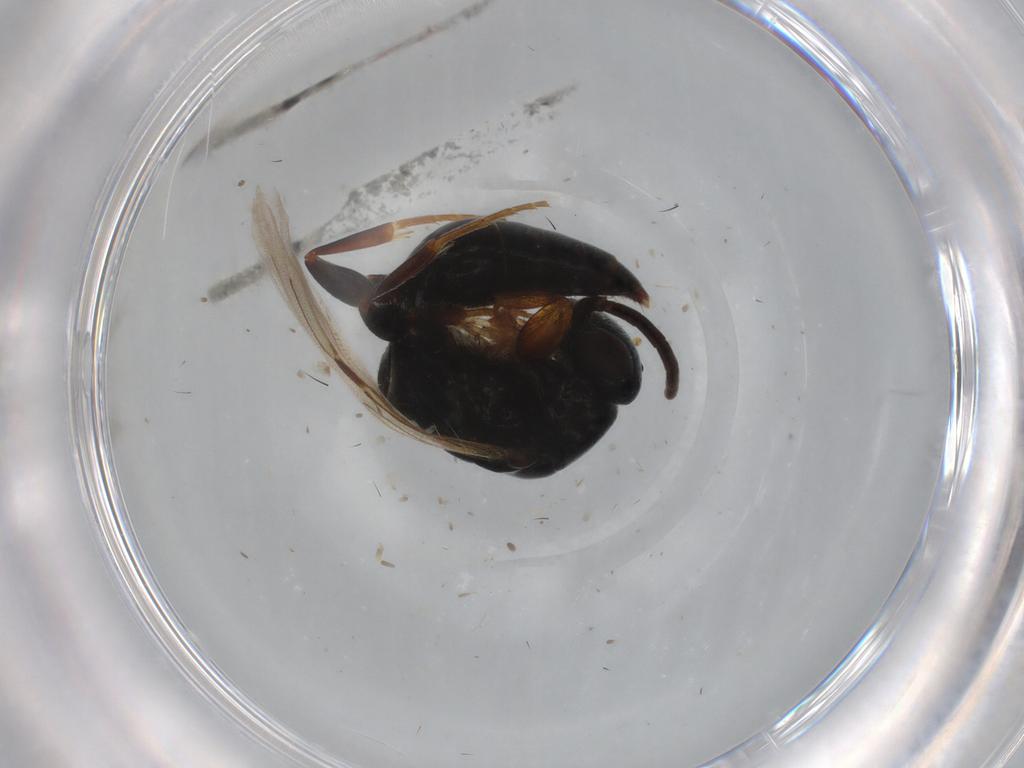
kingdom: Animalia
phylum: Arthropoda
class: Insecta
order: Hymenoptera
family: Bethylidae
